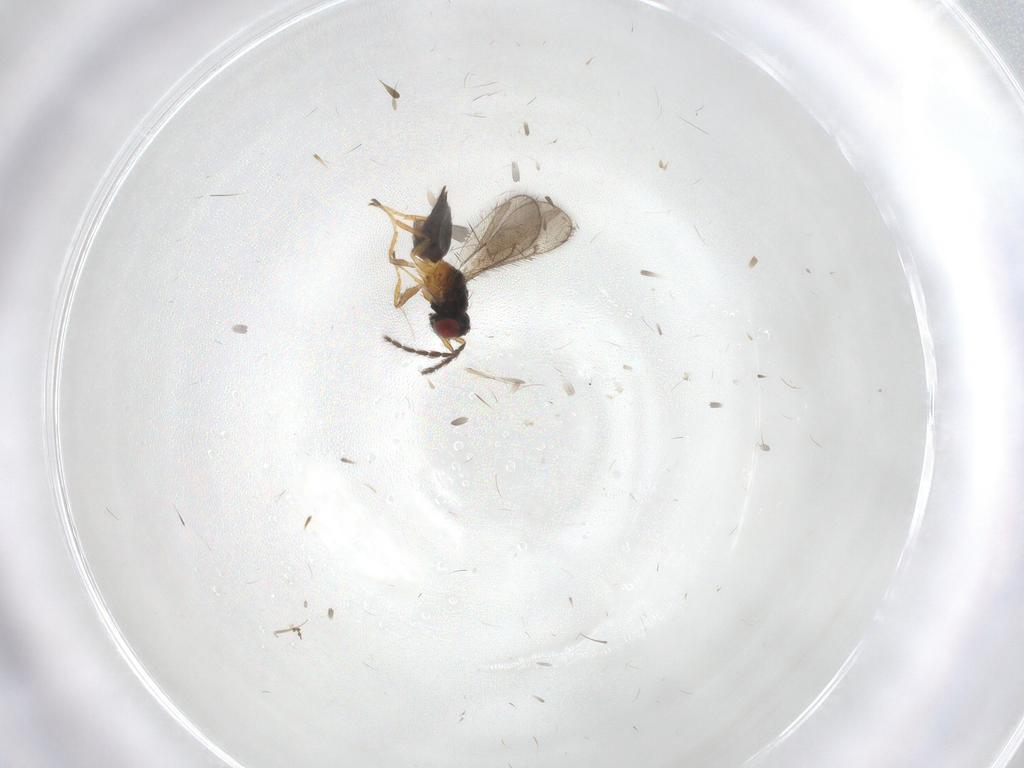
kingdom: Animalia
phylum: Arthropoda
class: Insecta
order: Hymenoptera
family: Eulophidae
